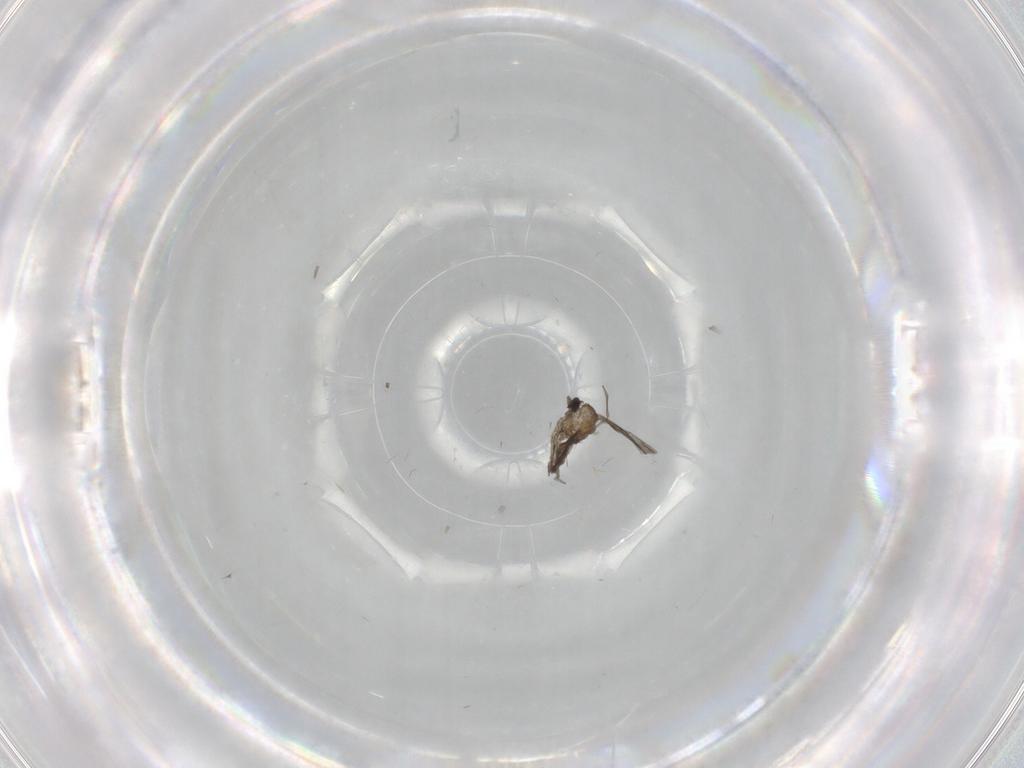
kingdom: Animalia
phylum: Arthropoda
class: Insecta
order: Diptera
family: Cecidomyiidae
